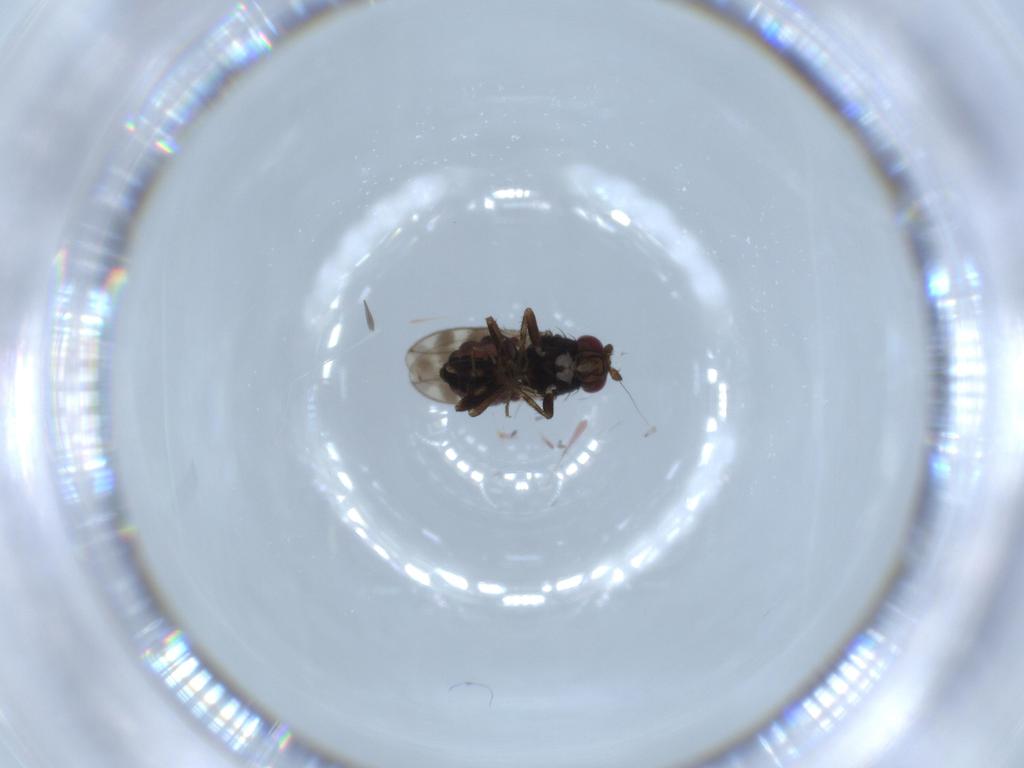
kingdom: Animalia
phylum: Arthropoda
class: Insecta
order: Diptera
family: Sphaeroceridae
